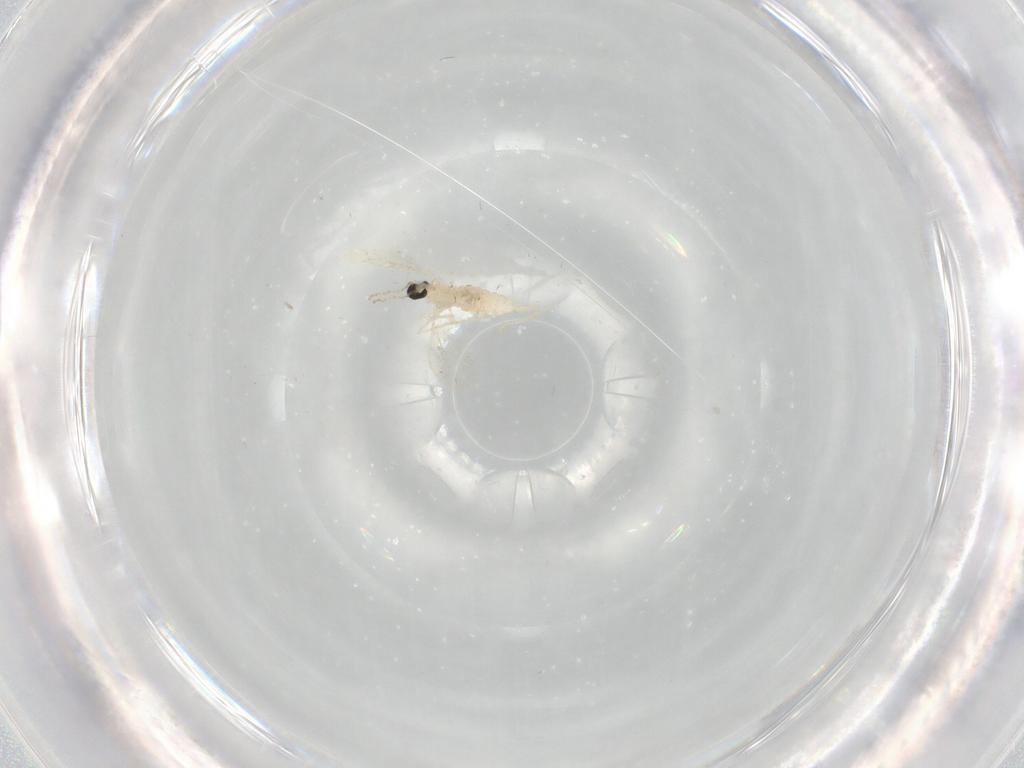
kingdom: Animalia
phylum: Arthropoda
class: Insecta
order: Diptera
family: Cecidomyiidae
